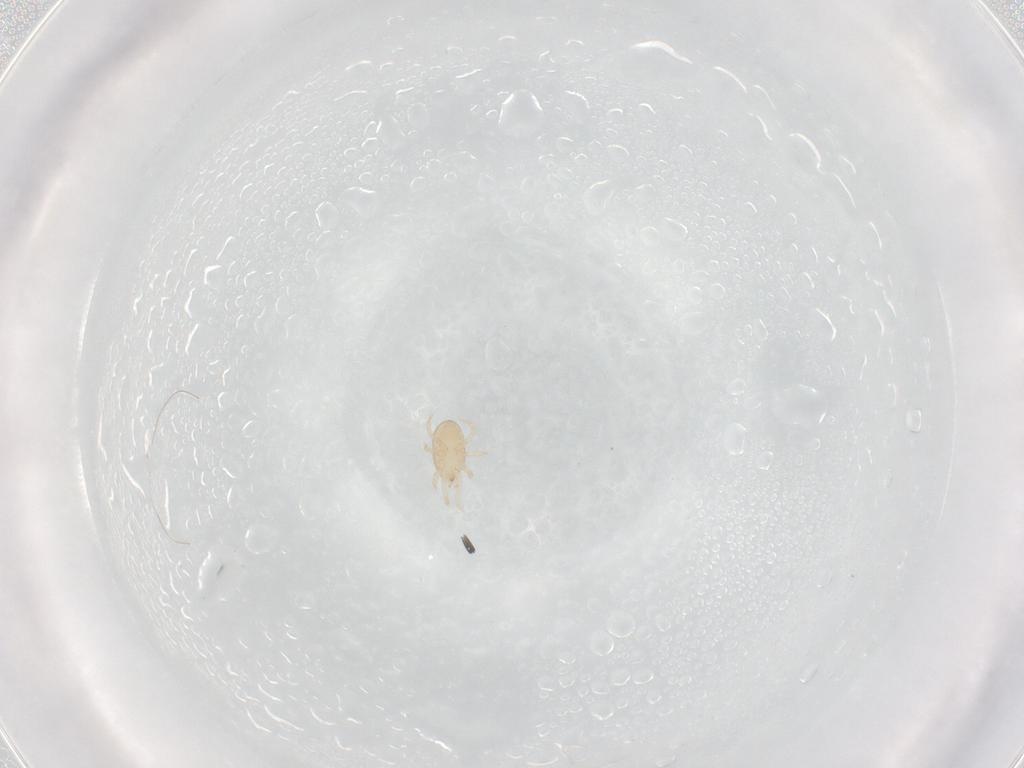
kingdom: Animalia
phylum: Arthropoda
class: Arachnida
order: Mesostigmata
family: Melicharidae
